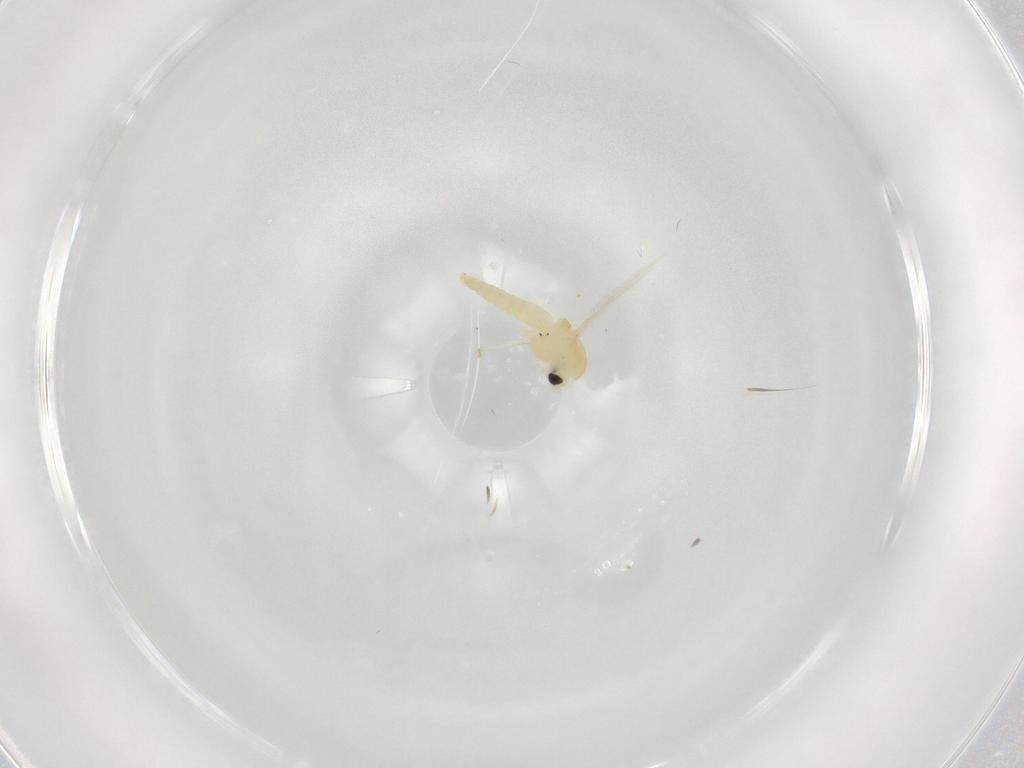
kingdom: Animalia
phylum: Arthropoda
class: Insecta
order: Diptera
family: Chironomidae
